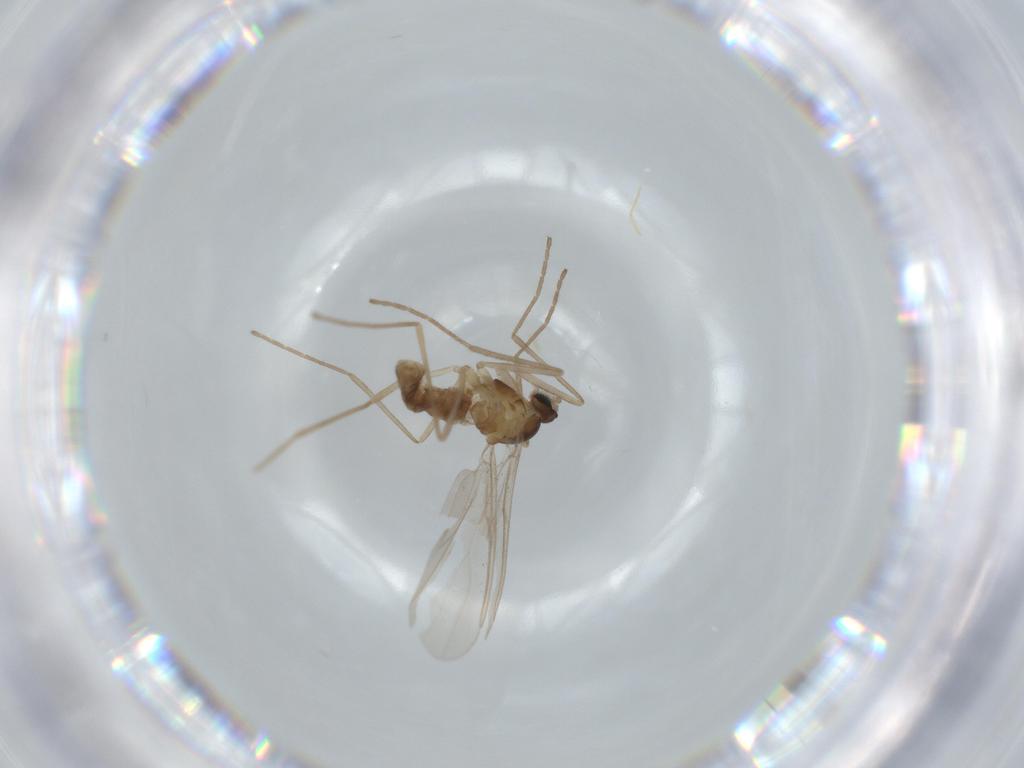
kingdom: Animalia
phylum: Arthropoda
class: Insecta
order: Diptera
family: Cecidomyiidae
